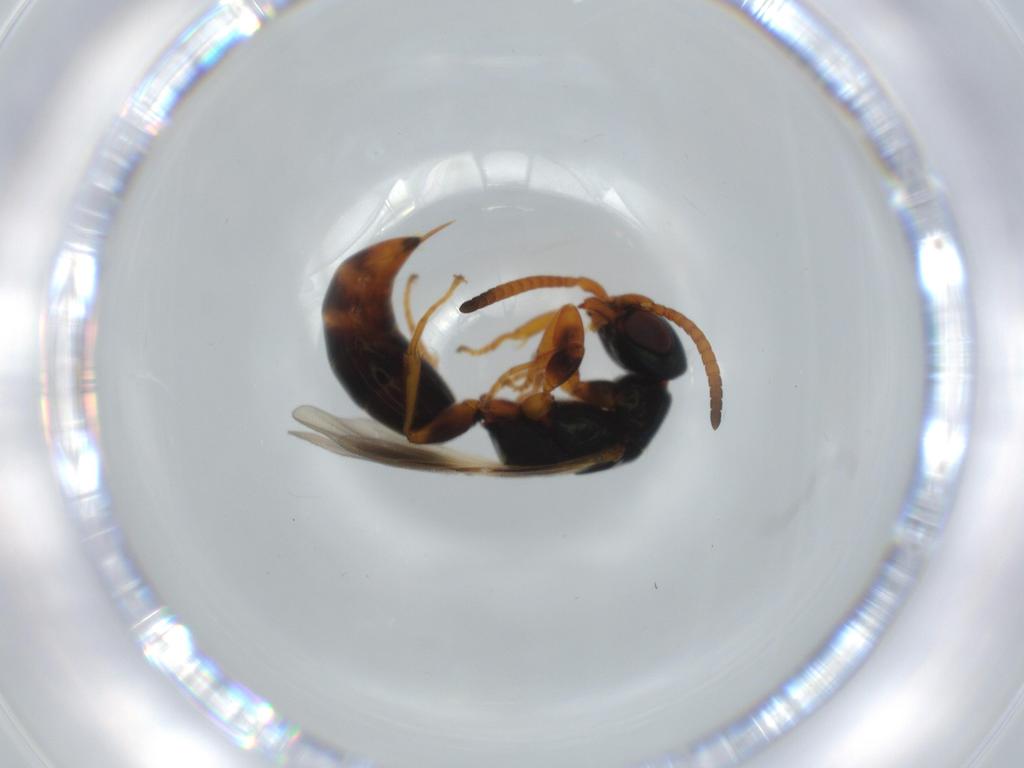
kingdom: Animalia
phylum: Arthropoda
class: Insecta
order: Hymenoptera
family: Bethylidae
